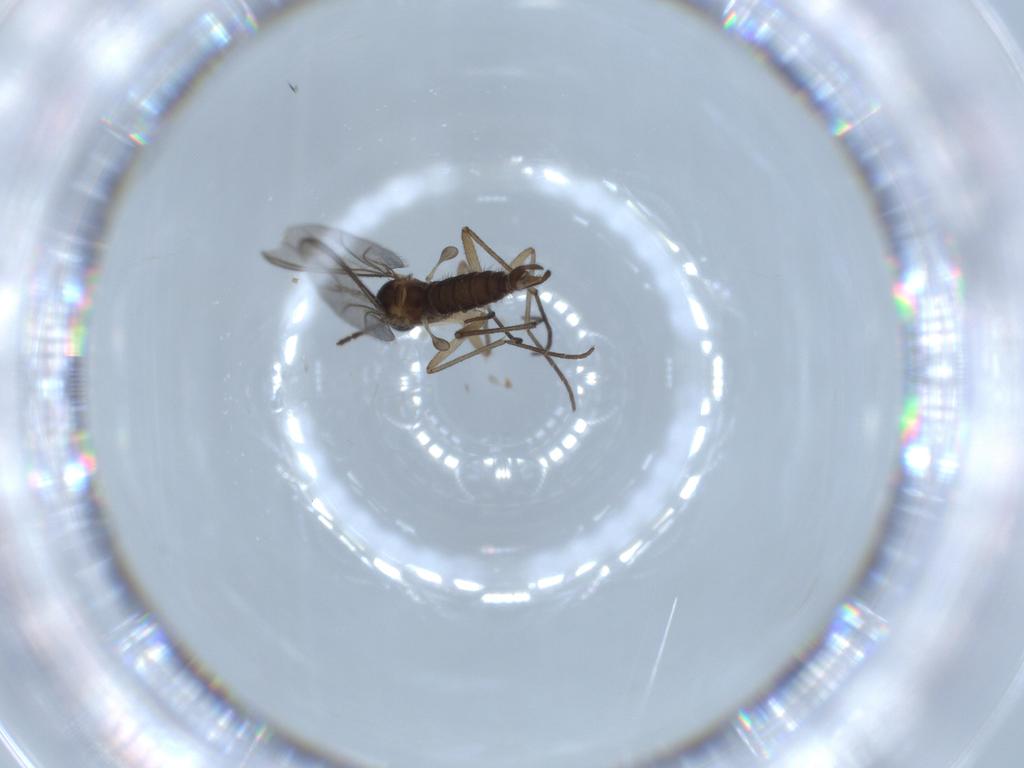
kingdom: Animalia
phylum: Arthropoda
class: Insecta
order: Diptera
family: Sciaridae
